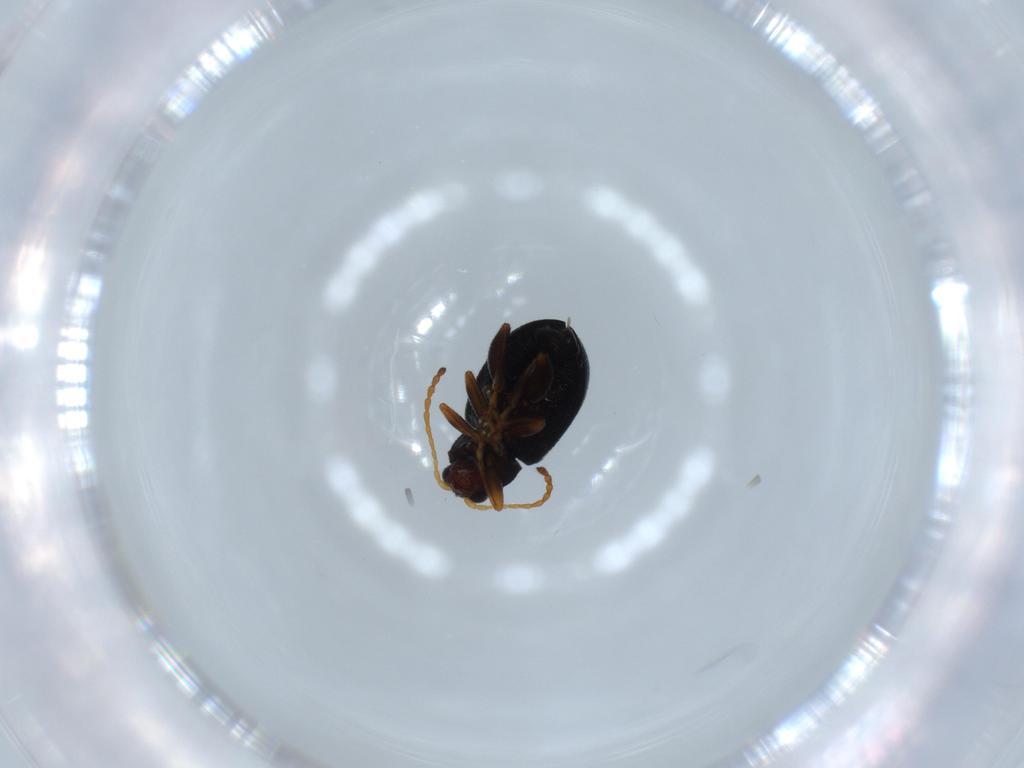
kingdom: Animalia
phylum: Arthropoda
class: Insecta
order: Coleoptera
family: Chrysomelidae
